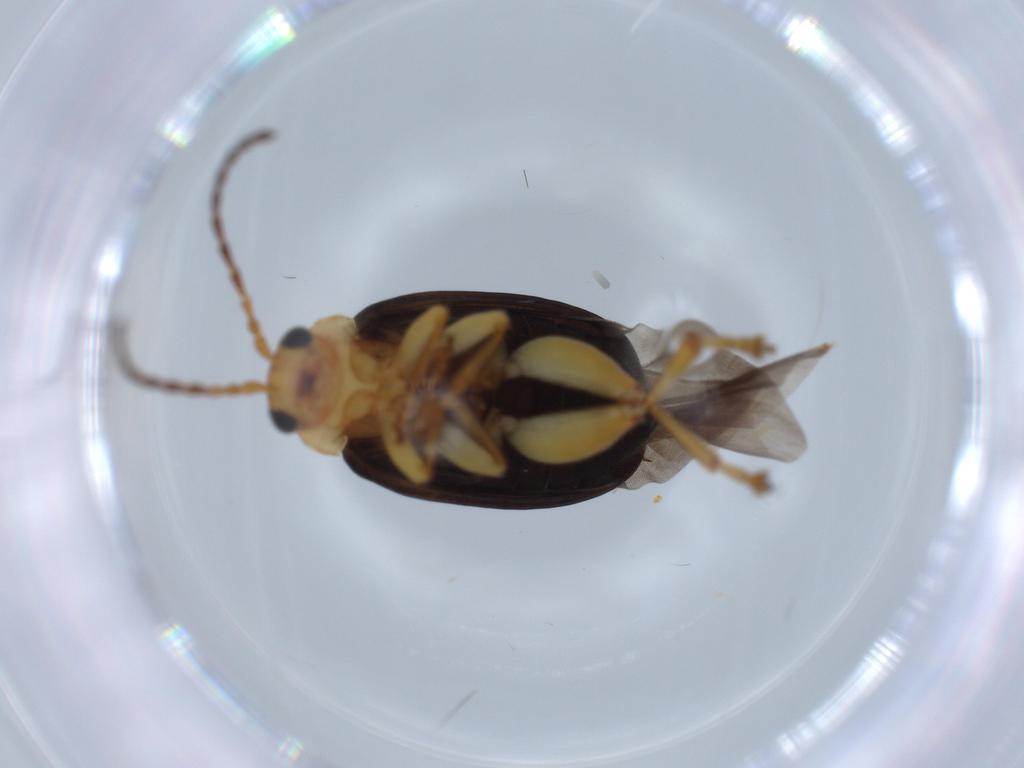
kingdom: Animalia
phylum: Arthropoda
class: Insecta
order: Coleoptera
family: Chrysomelidae
